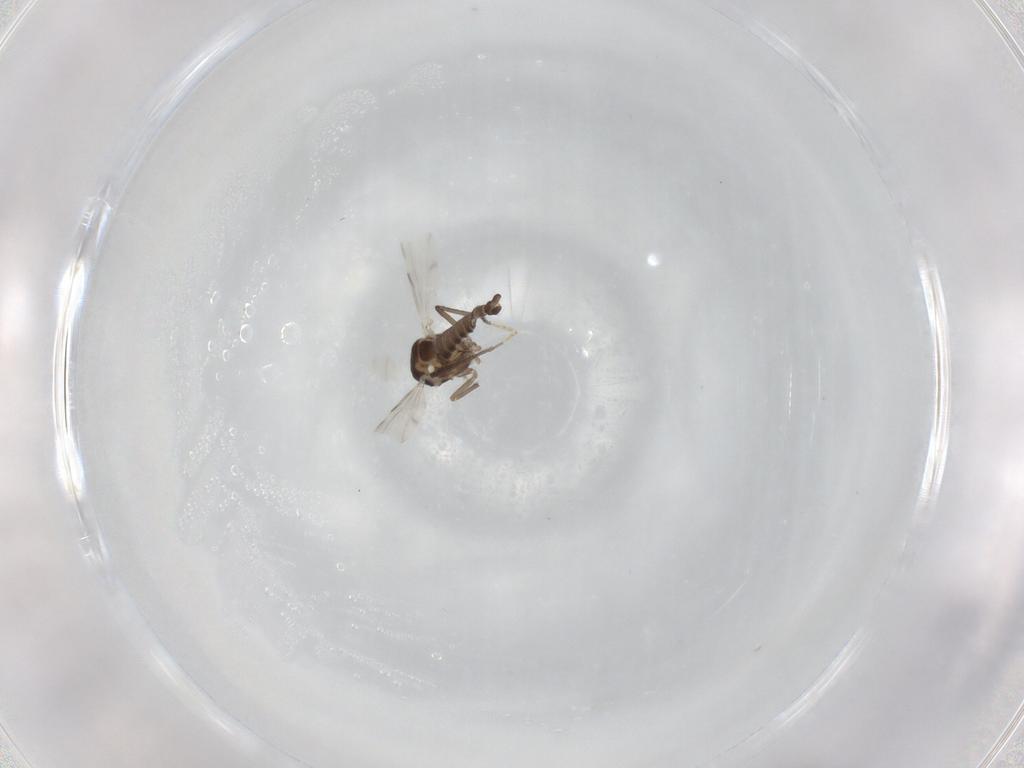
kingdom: Animalia
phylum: Arthropoda
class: Insecta
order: Diptera
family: Ceratopogonidae
